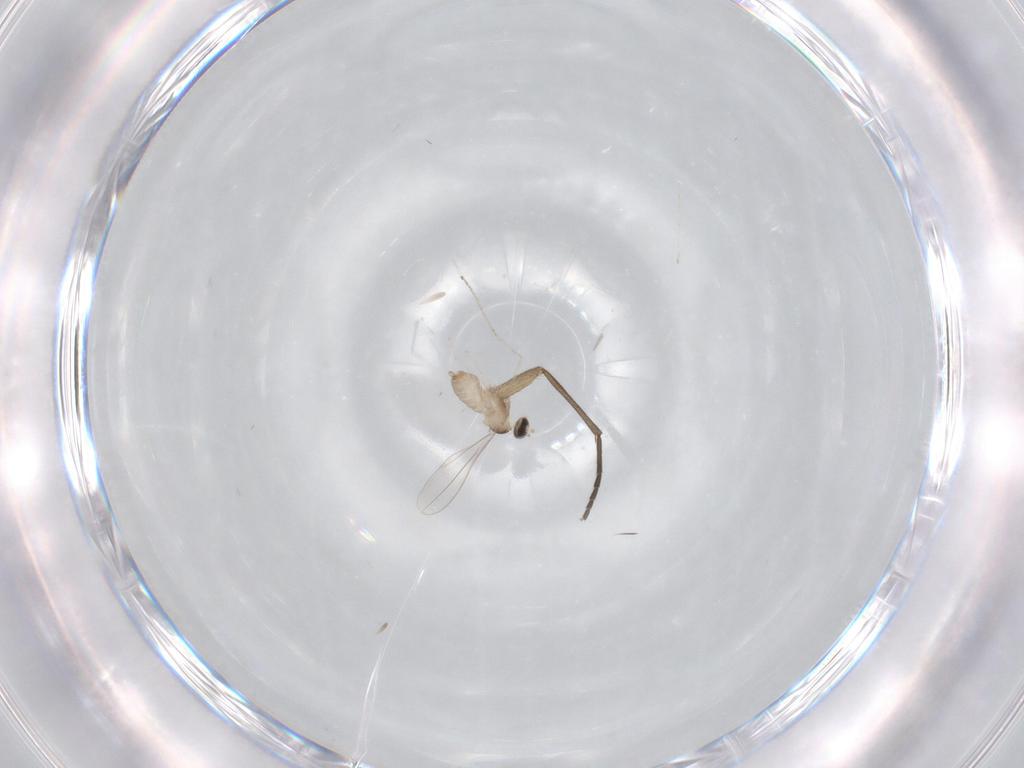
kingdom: Animalia
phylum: Arthropoda
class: Insecta
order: Diptera
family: Cecidomyiidae
